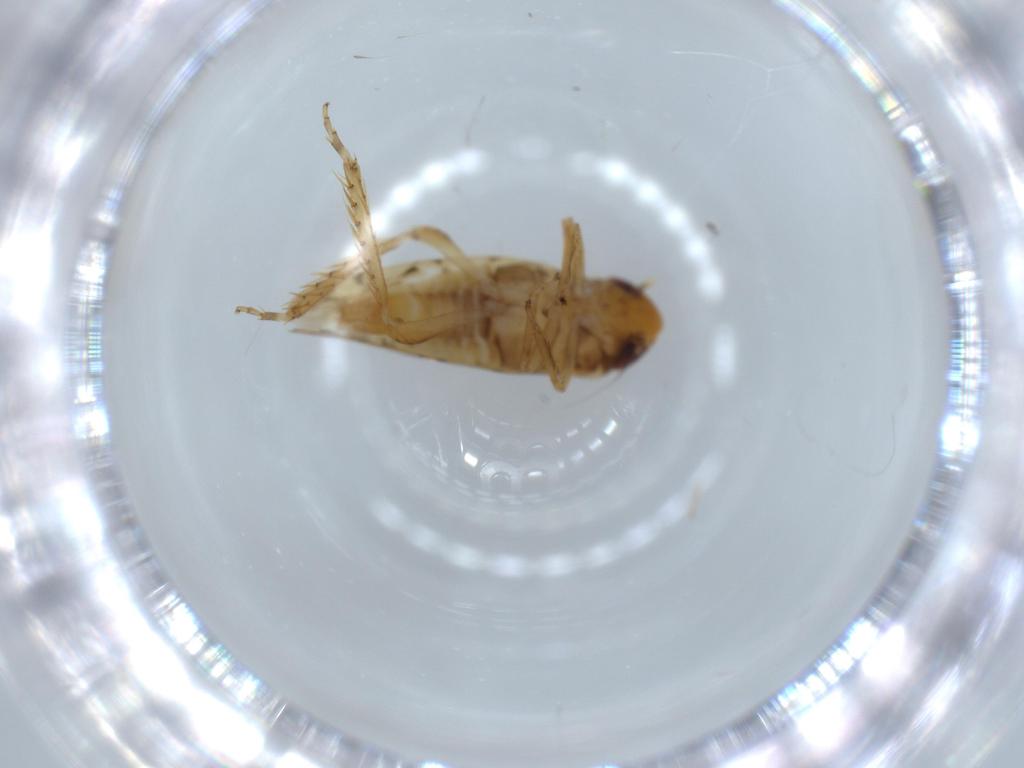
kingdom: Animalia
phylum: Arthropoda
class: Insecta
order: Hemiptera
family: Cicadellidae
